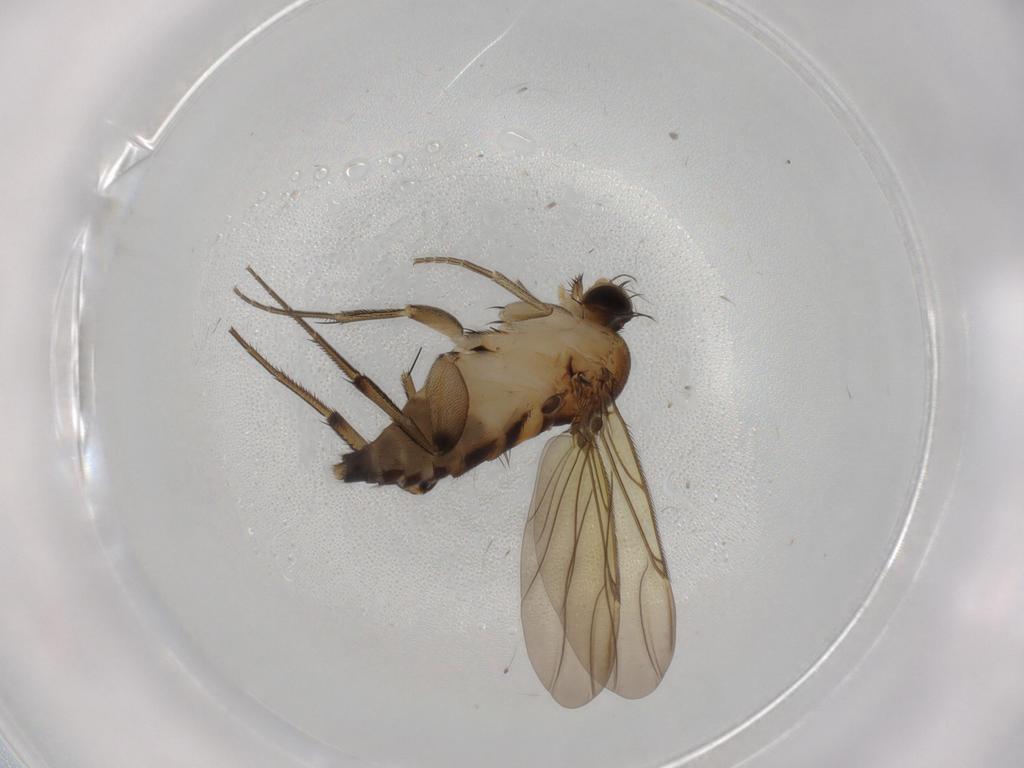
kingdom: Animalia
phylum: Arthropoda
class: Insecta
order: Diptera
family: Phoridae
